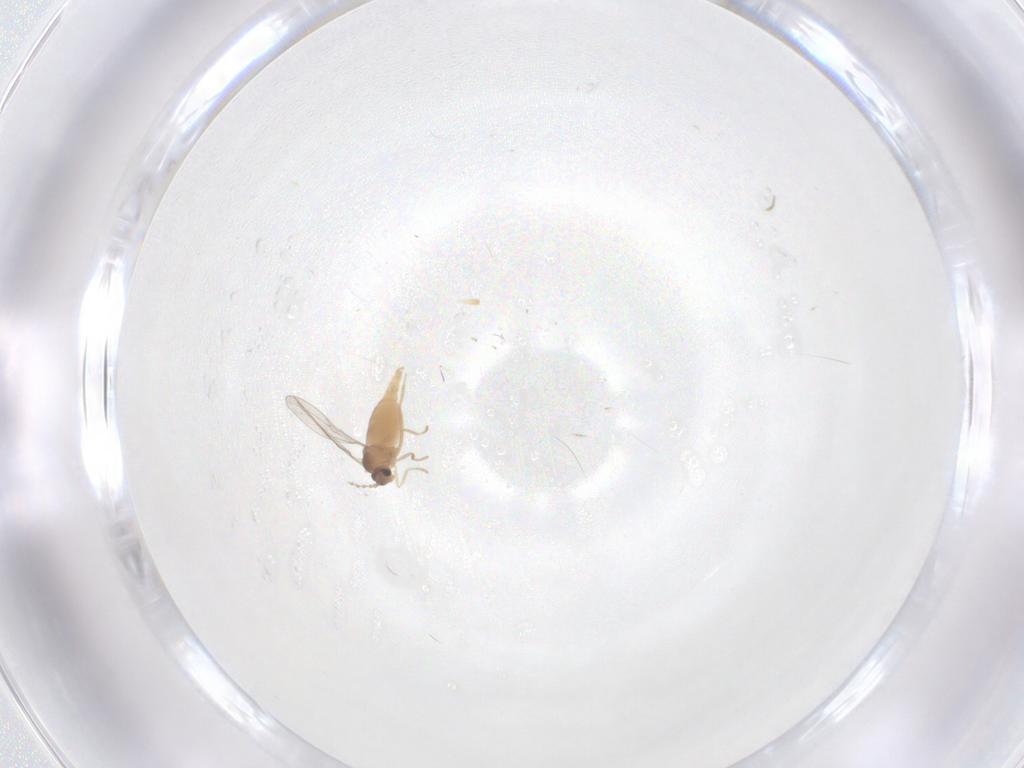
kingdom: Animalia
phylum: Arthropoda
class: Insecta
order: Diptera
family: Cecidomyiidae
